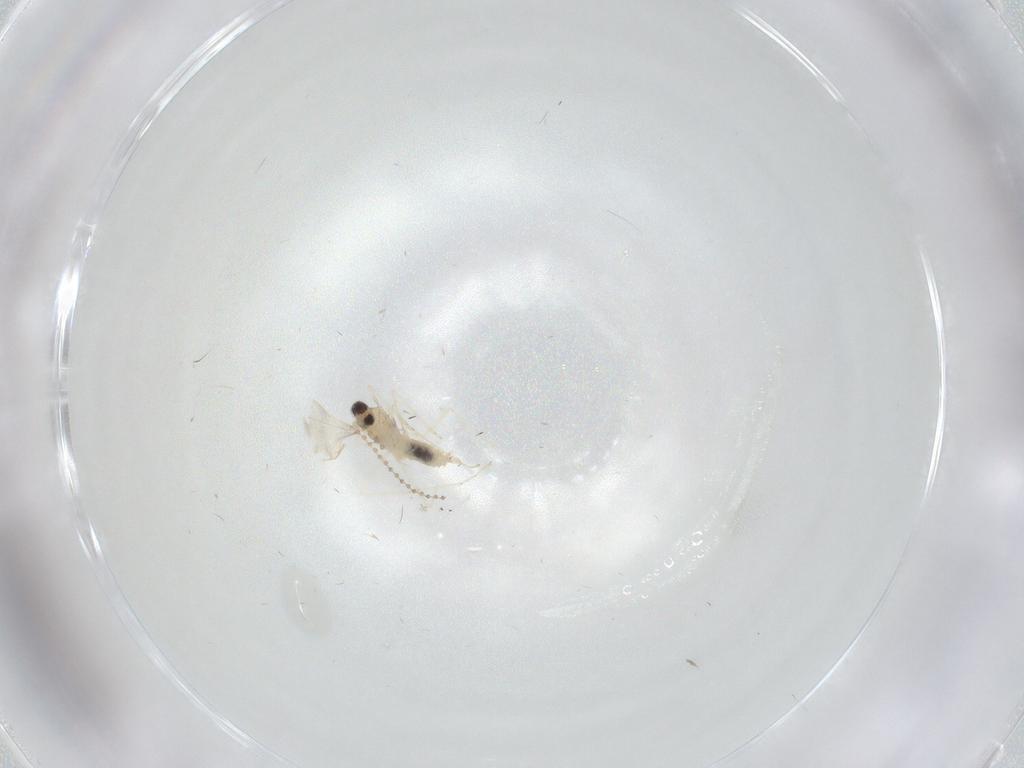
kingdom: Animalia
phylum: Arthropoda
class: Insecta
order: Diptera
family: Cecidomyiidae
